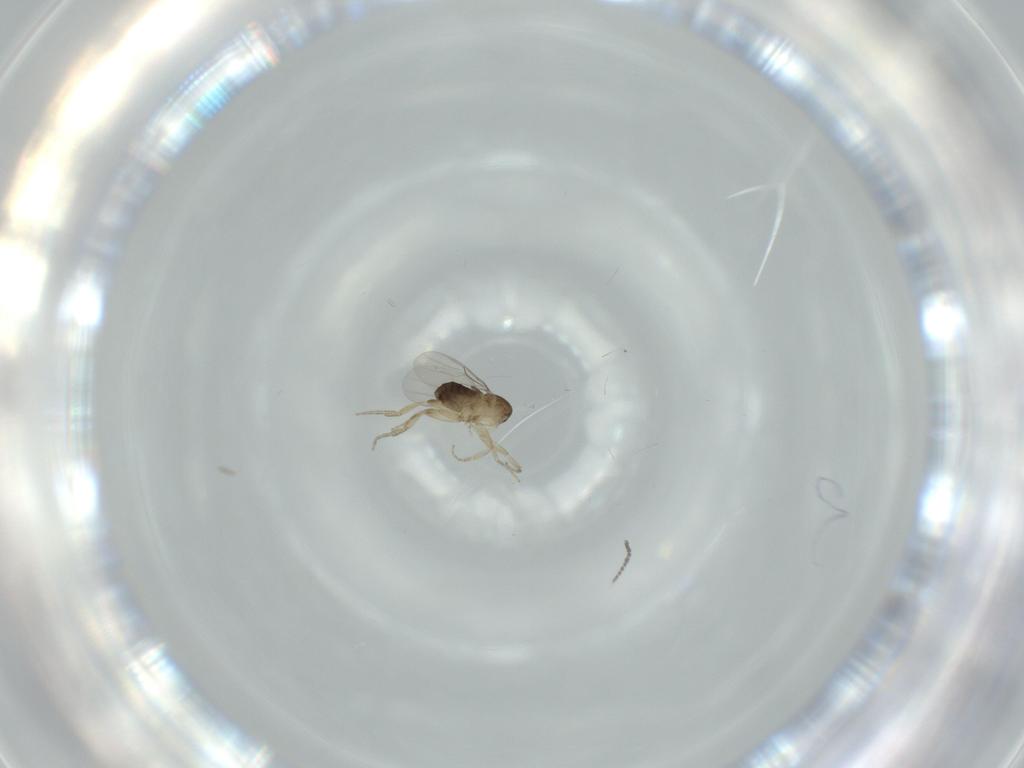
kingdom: Animalia
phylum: Arthropoda
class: Insecta
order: Diptera
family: Phoridae
